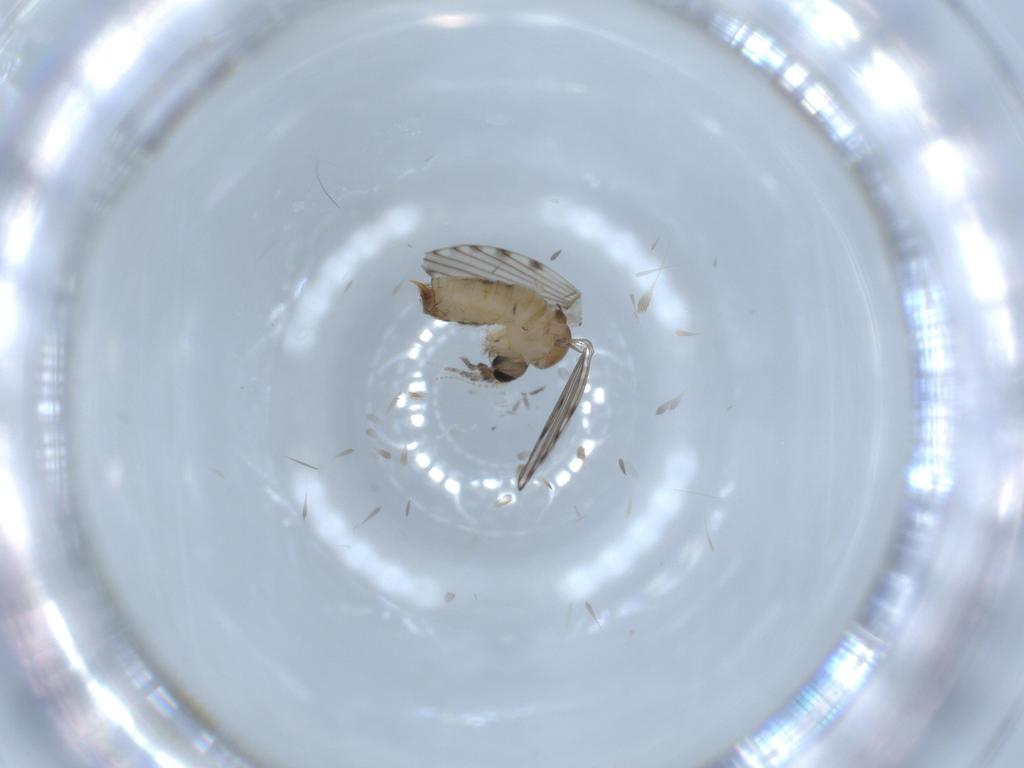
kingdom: Animalia
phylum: Arthropoda
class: Insecta
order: Diptera
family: Psychodidae
